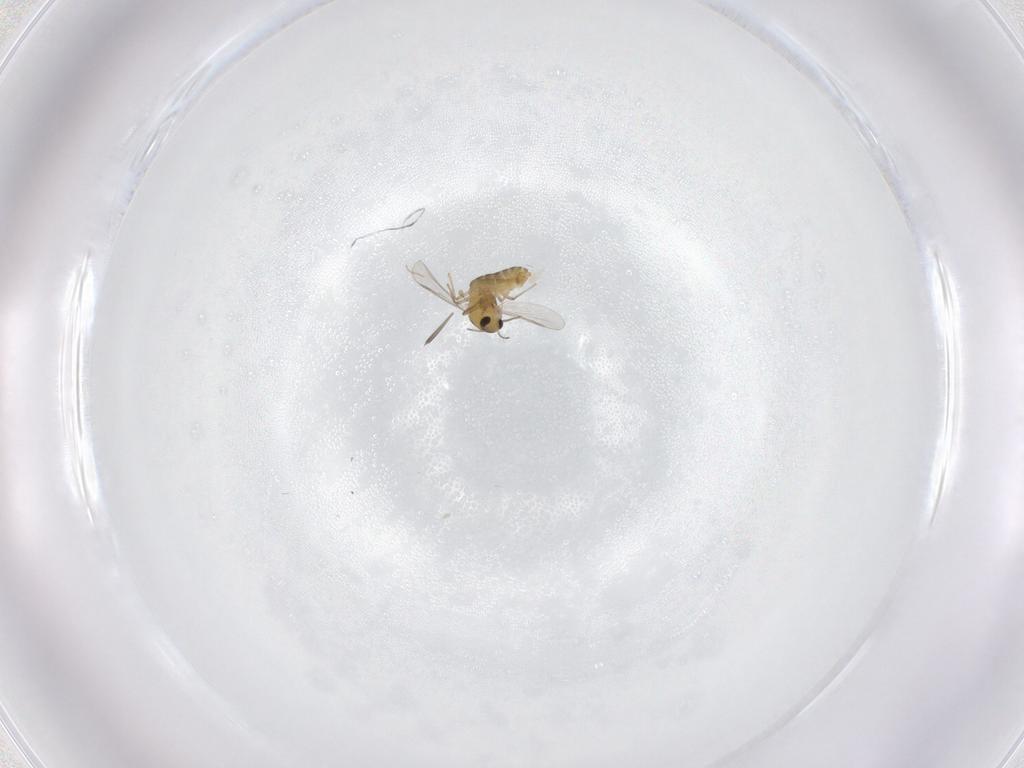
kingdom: Animalia
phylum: Arthropoda
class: Insecta
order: Diptera
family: Chironomidae
